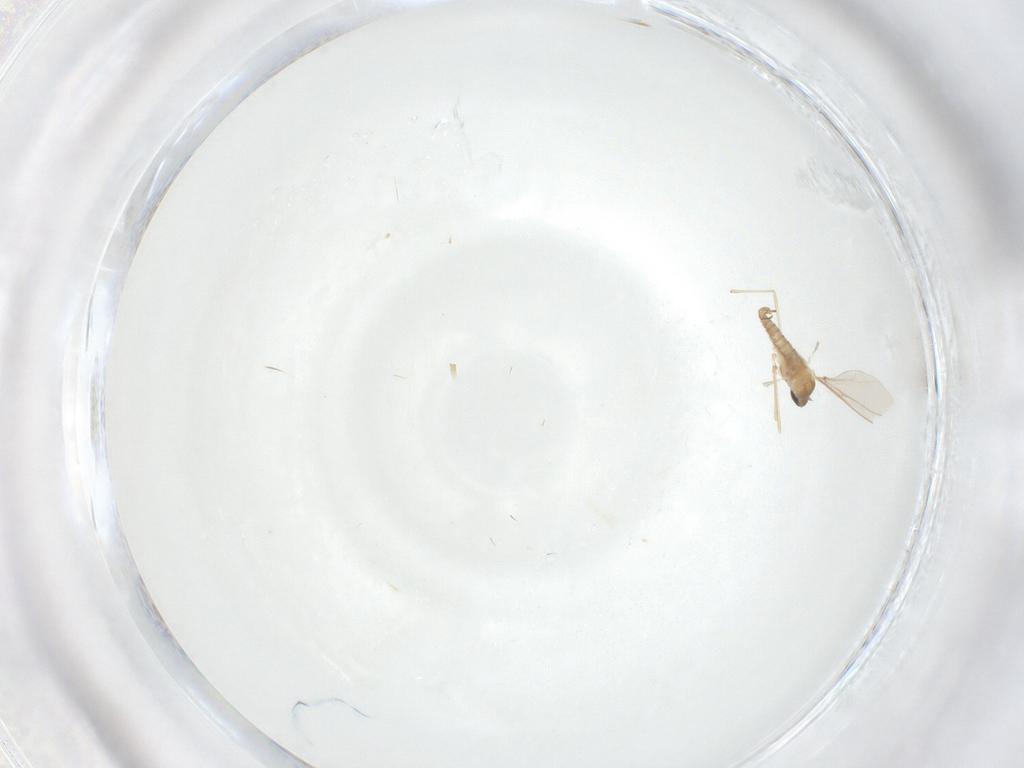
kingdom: Animalia
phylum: Arthropoda
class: Insecta
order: Diptera
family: Cecidomyiidae
